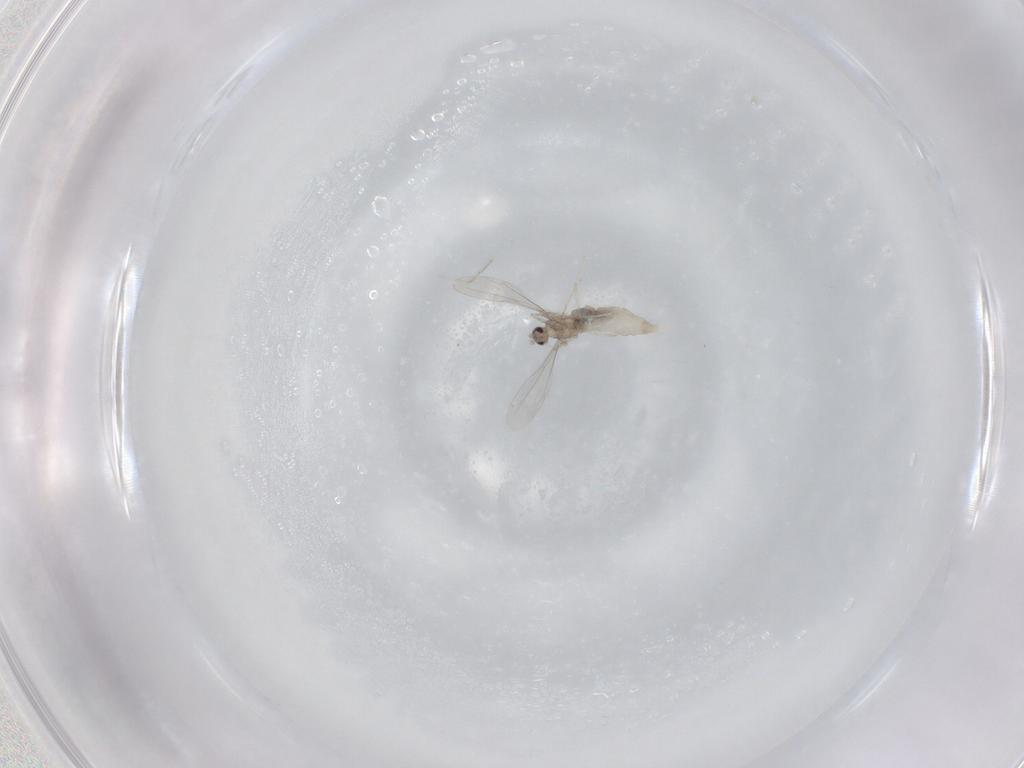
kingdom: Animalia
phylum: Arthropoda
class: Insecta
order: Diptera
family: Cecidomyiidae
